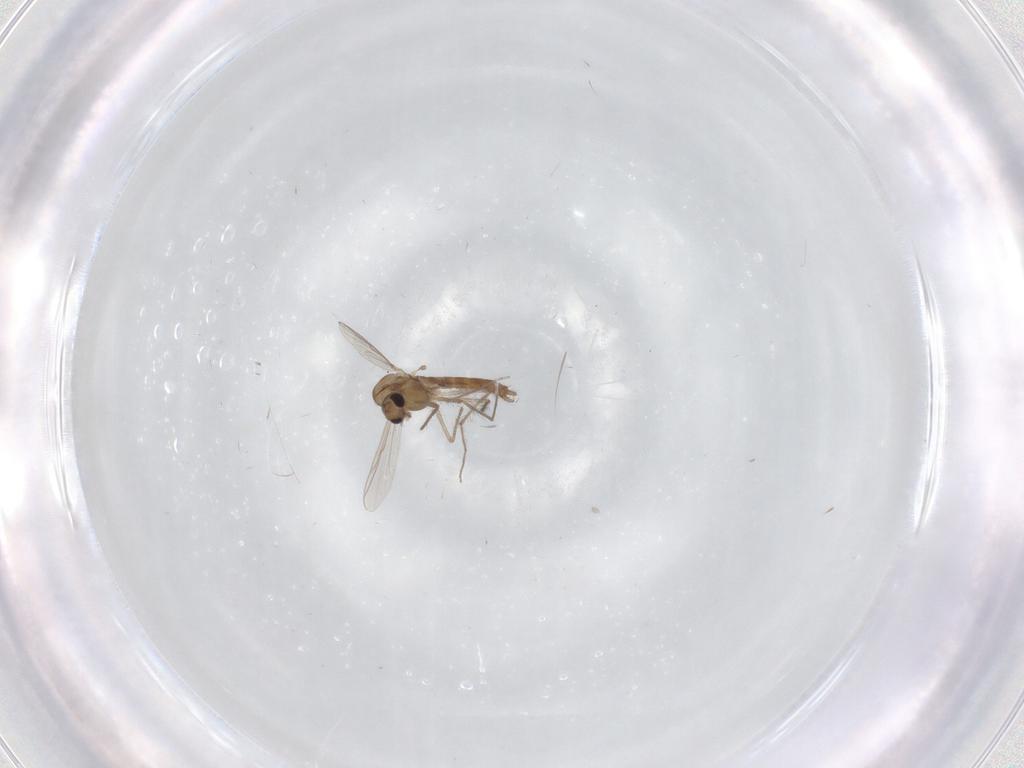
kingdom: Animalia
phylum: Arthropoda
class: Insecta
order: Diptera
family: Chironomidae
